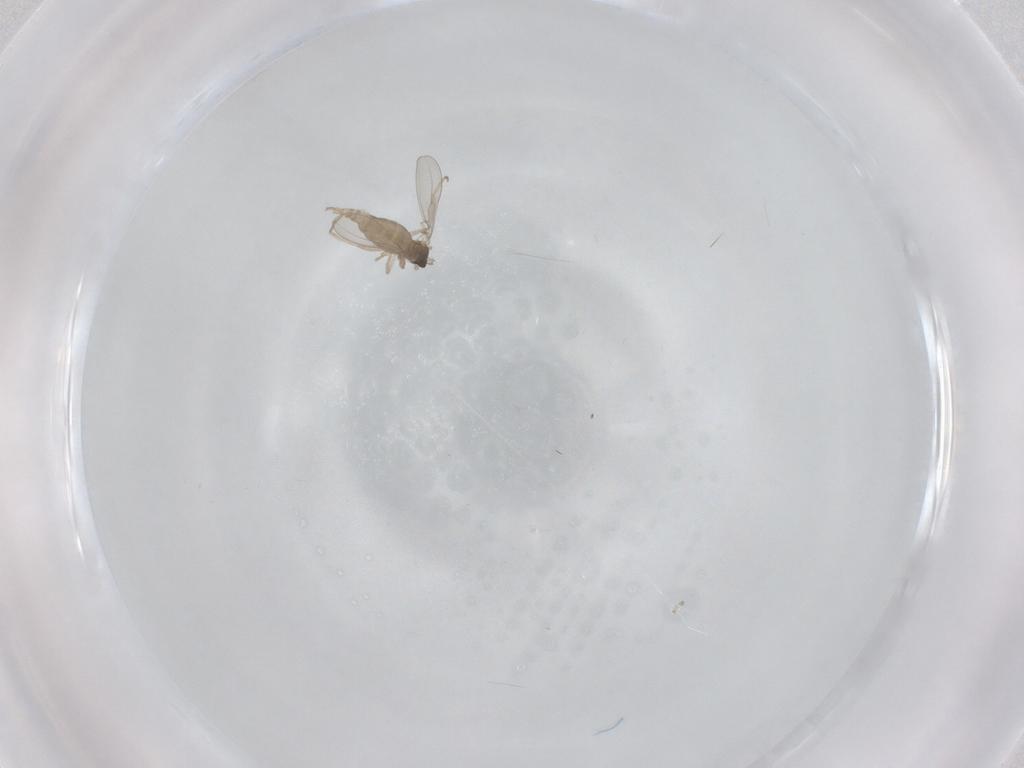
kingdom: Animalia
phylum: Arthropoda
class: Insecta
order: Diptera
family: Cecidomyiidae
